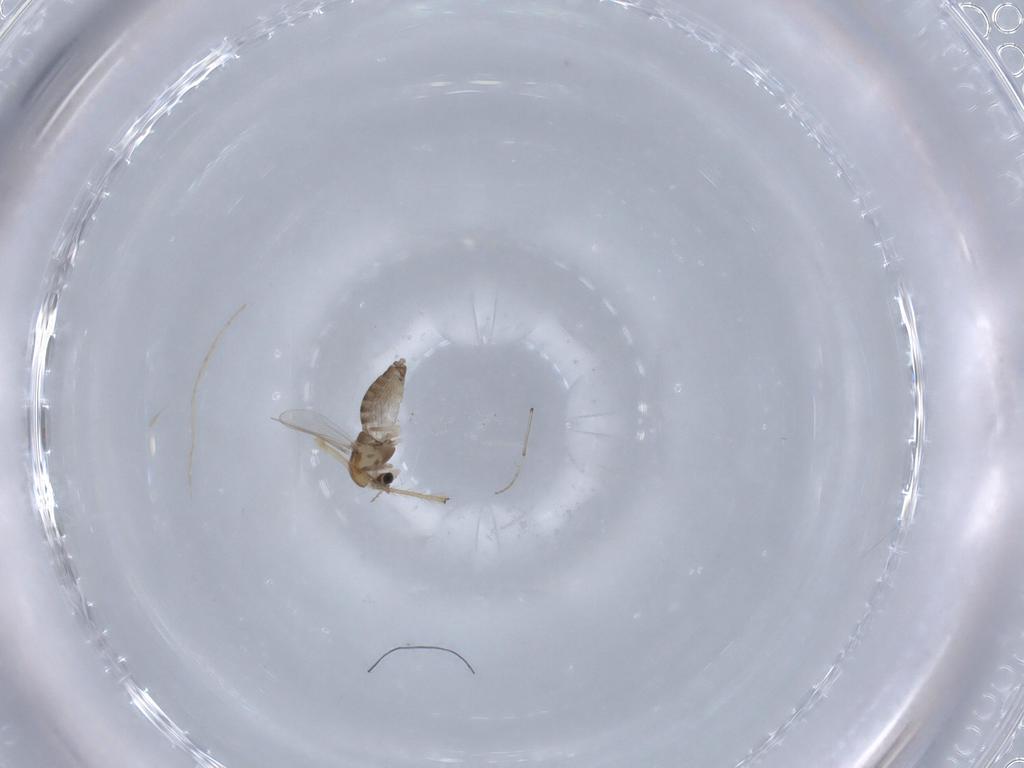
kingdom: Animalia
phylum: Arthropoda
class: Insecta
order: Diptera
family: Chironomidae
